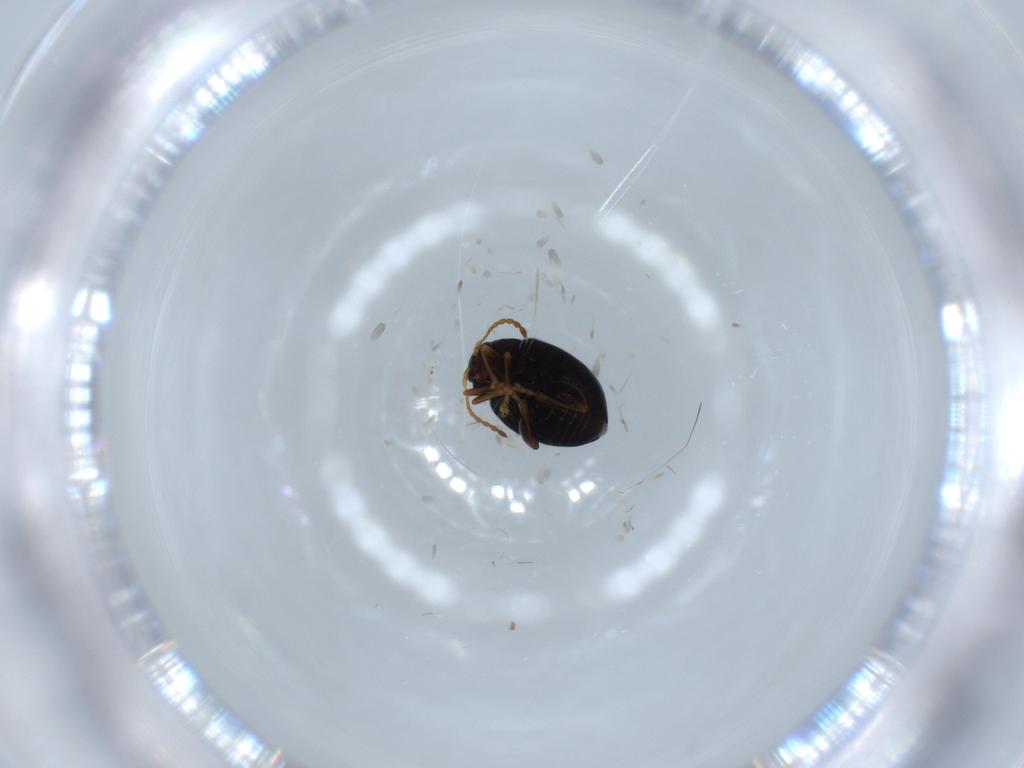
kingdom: Animalia
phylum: Arthropoda
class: Insecta
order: Coleoptera
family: Chrysomelidae
